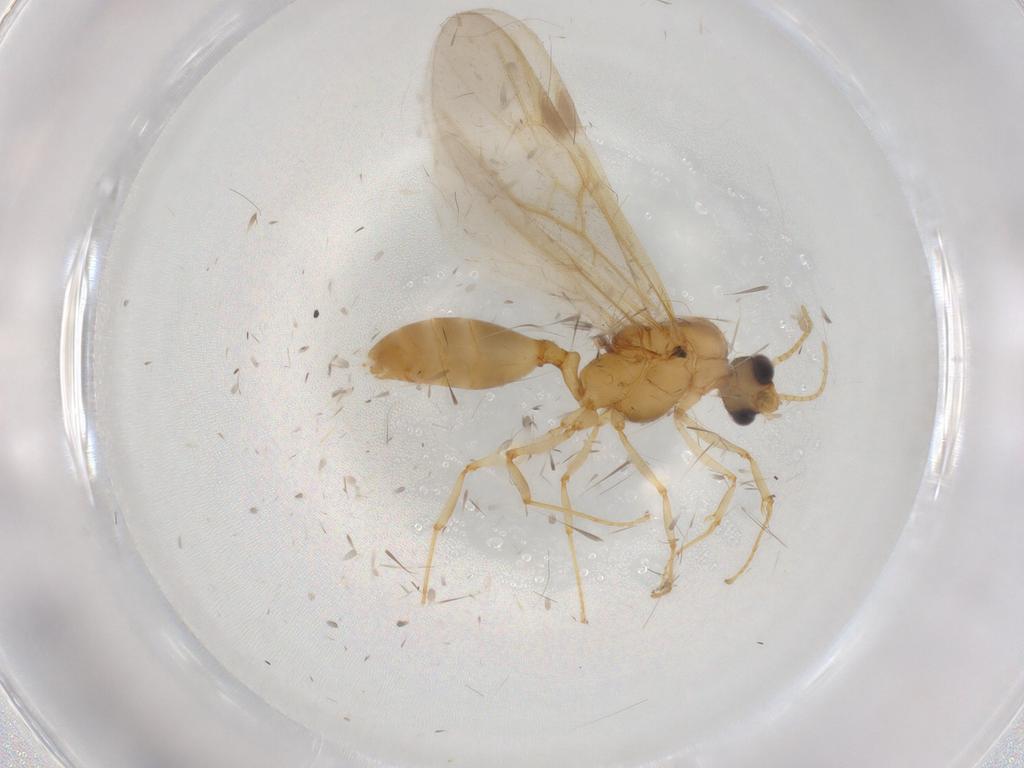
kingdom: Animalia
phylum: Arthropoda
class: Insecta
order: Hymenoptera
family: Formicidae
